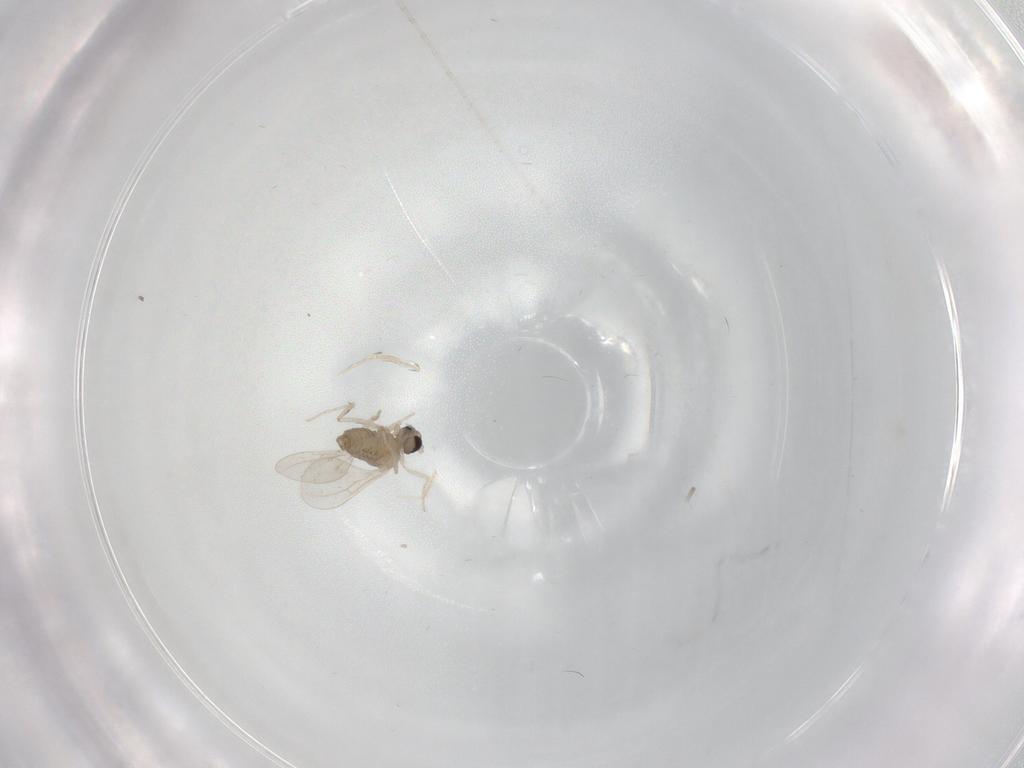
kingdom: Animalia
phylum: Arthropoda
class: Insecta
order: Diptera
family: Cecidomyiidae
